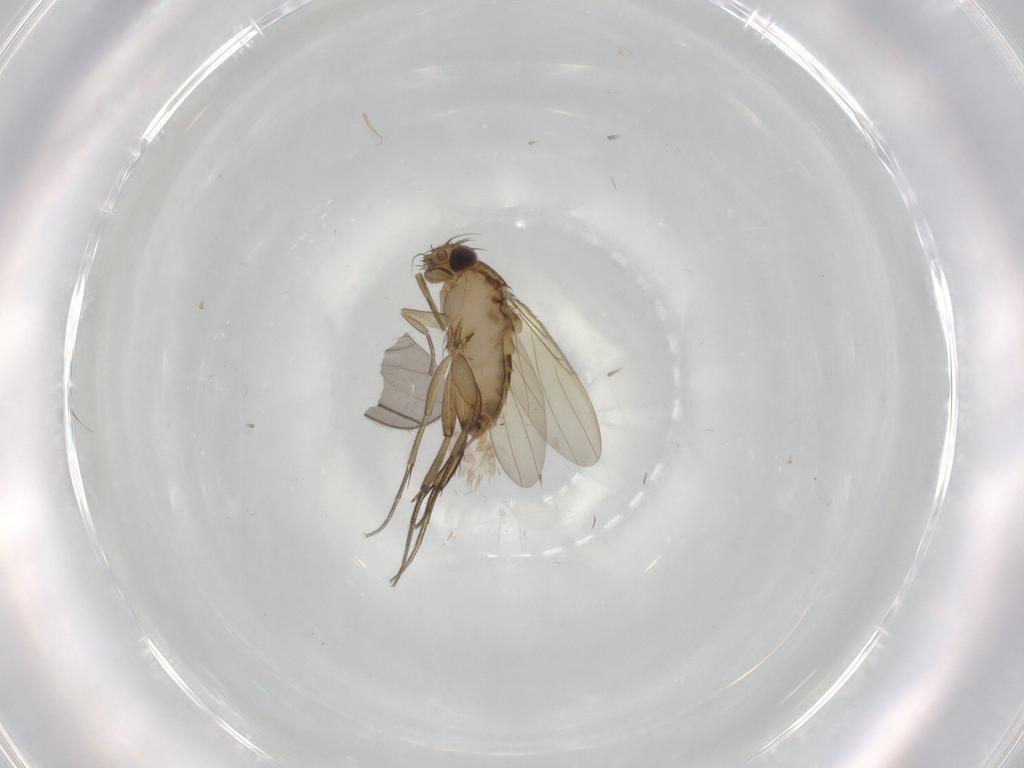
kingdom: Animalia
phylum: Arthropoda
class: Insecta
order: Diptera
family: Phoridae
